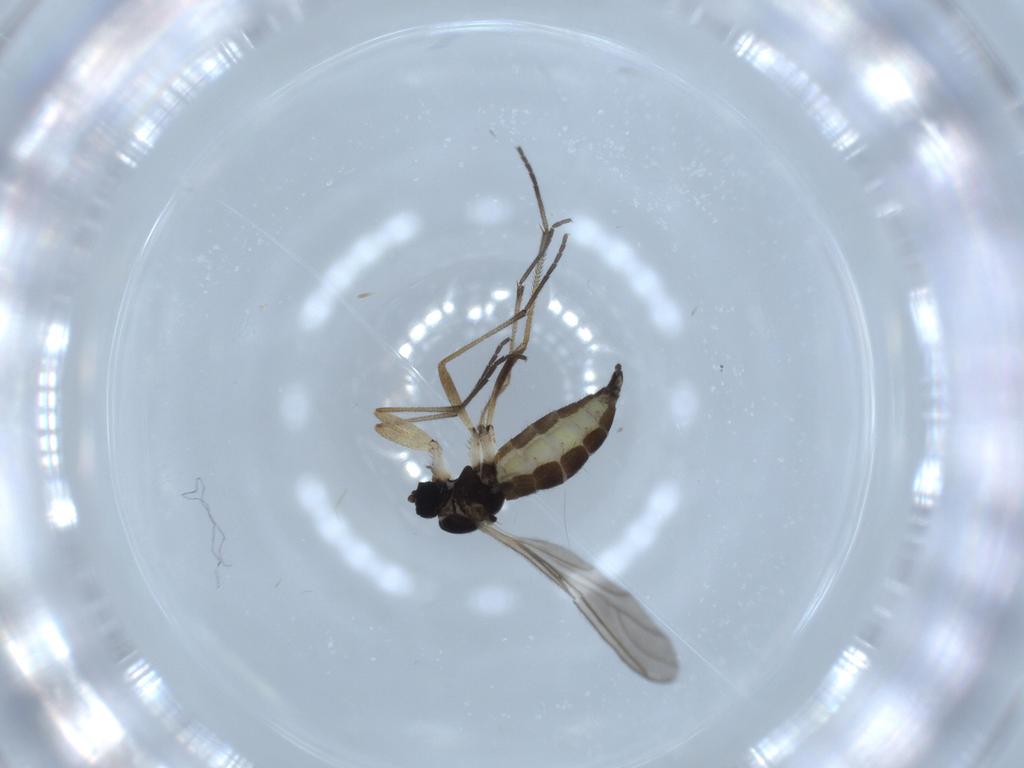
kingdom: Animalia
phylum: Arthropoda
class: Insecta
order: Diptera
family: Sciaridae
